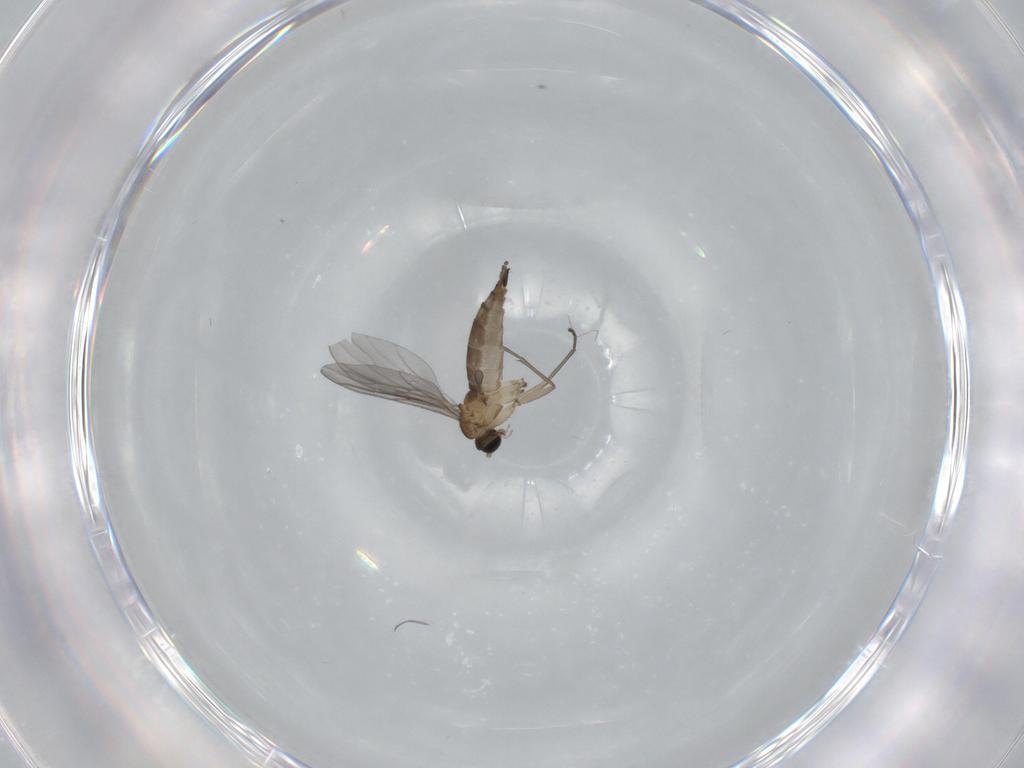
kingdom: Animalia
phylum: Arthropoda
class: Insecta
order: Diptera
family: Sciaridae
